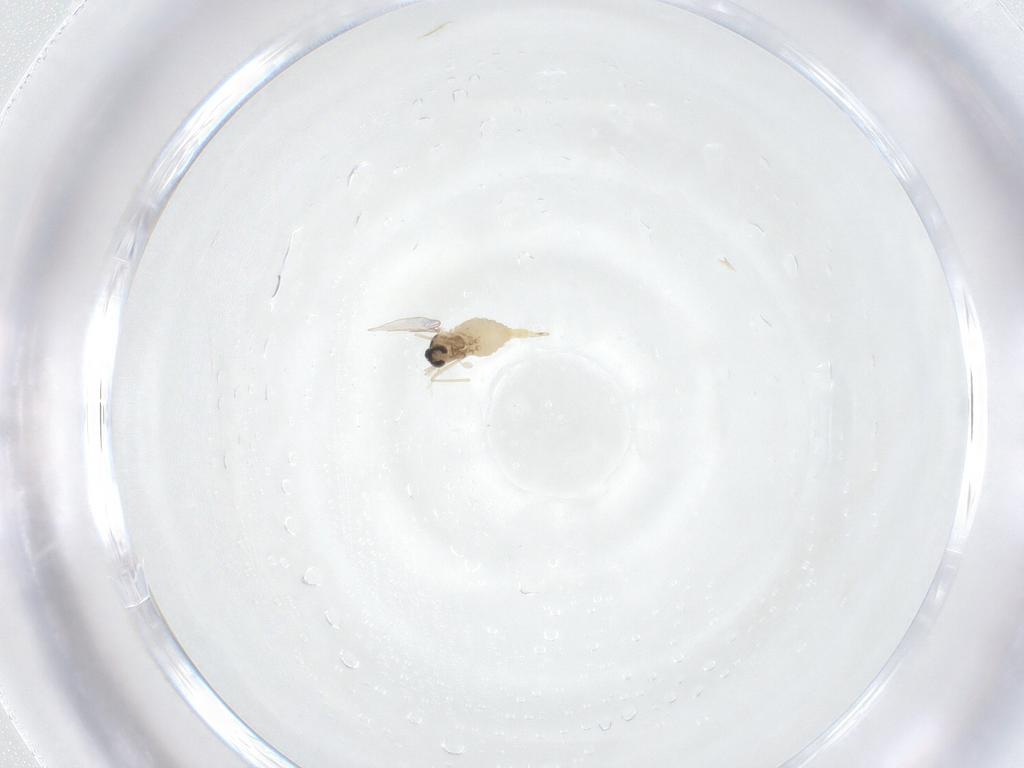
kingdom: Animalia
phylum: Arthropoda
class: Insecta
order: Diptera
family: Cecidomyiidae
